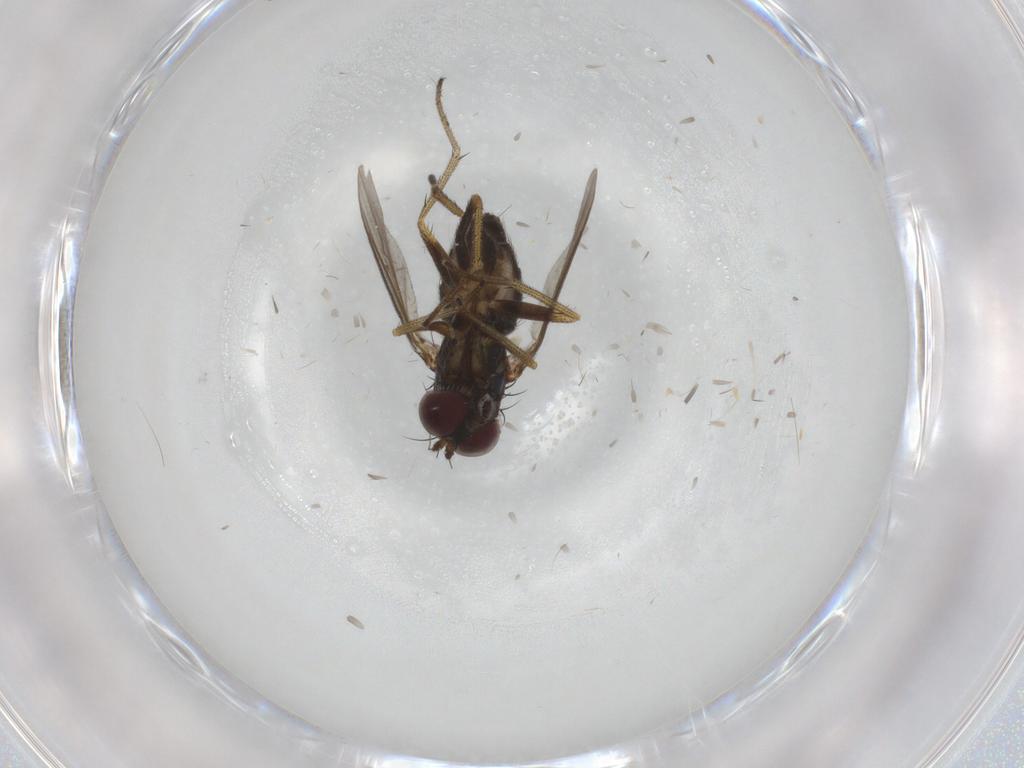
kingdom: Animalia
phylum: Arthropoda
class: Insecta
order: Diptera
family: Dolichopodidae
